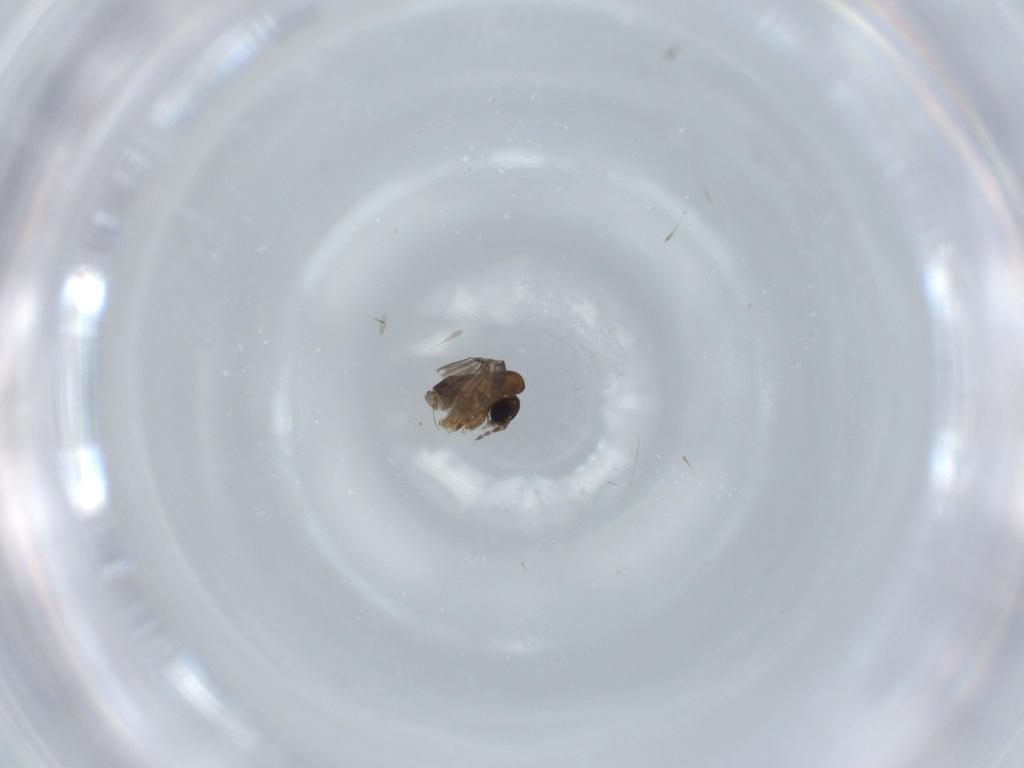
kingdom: Animalia
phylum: Arthropoda
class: Insecta
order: Diptera
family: Psychodidae
